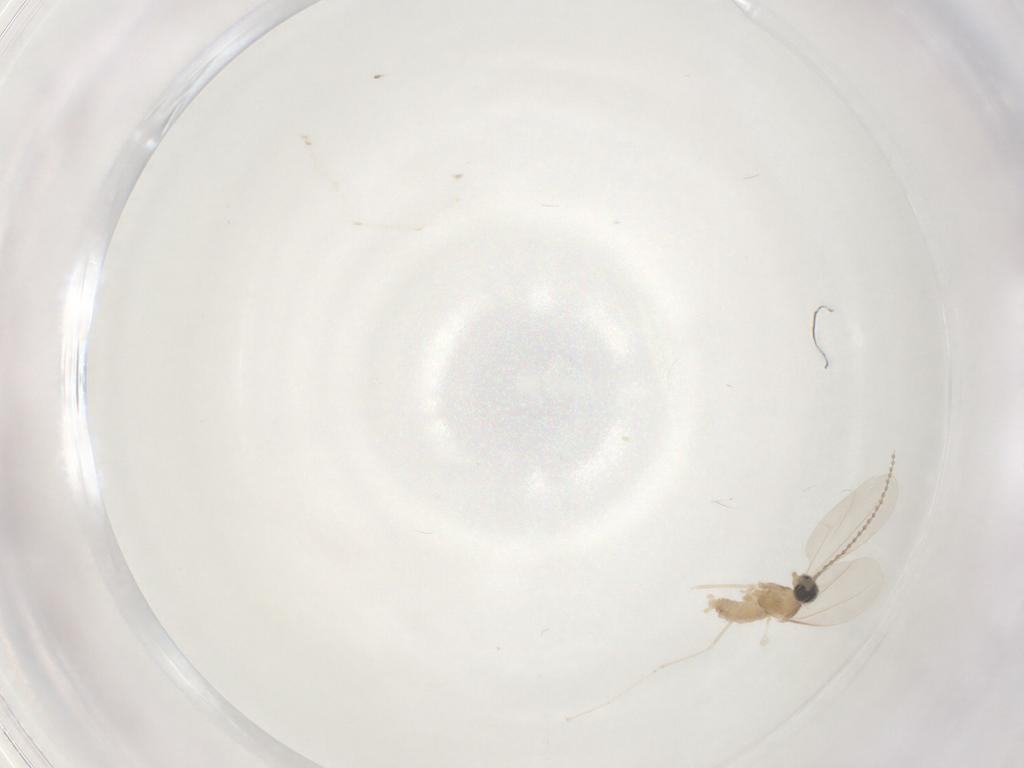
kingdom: Animalia
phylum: Arthropoda
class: Insecta
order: Diptera
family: Cecidomyiidae
